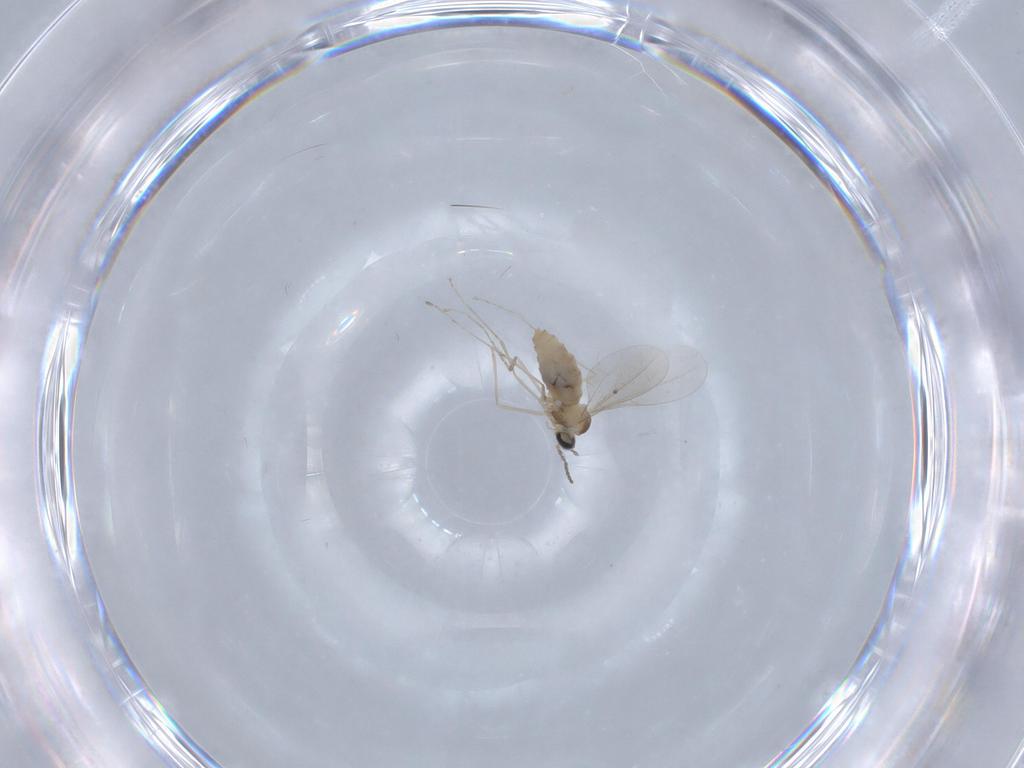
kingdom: Animalia
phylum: Arthropoda
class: Insecta
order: Diptera
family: Cecidomyiidae
